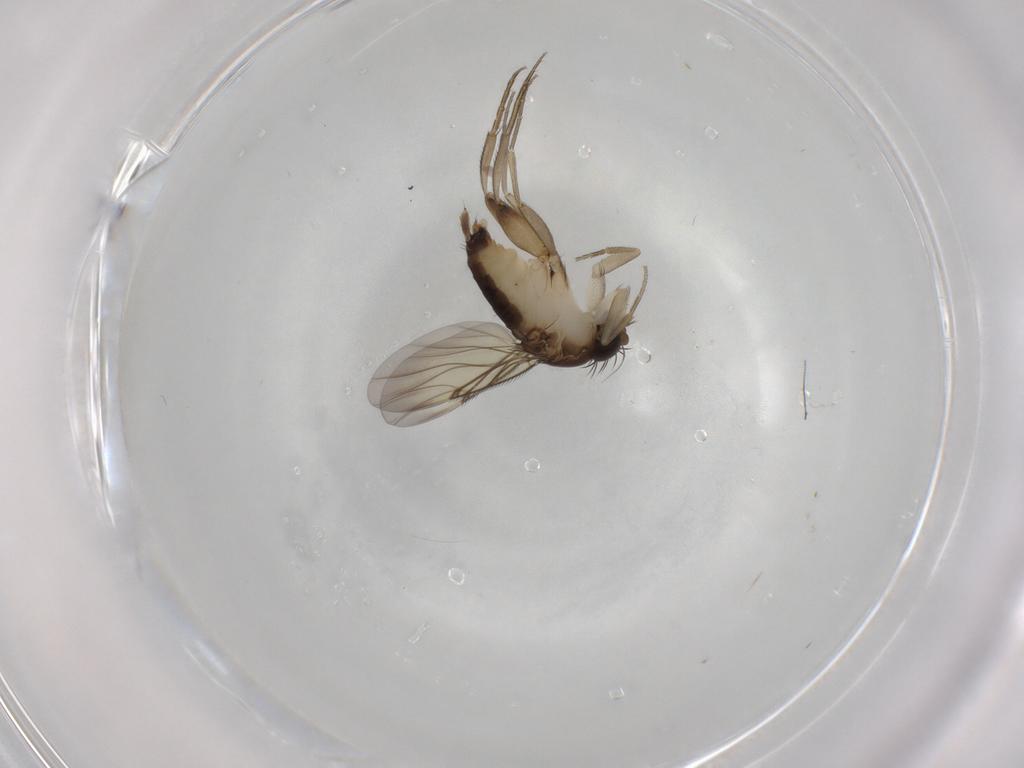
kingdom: Animalia
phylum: Arthropoda
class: Insecta
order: Diptera
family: Phoridae
